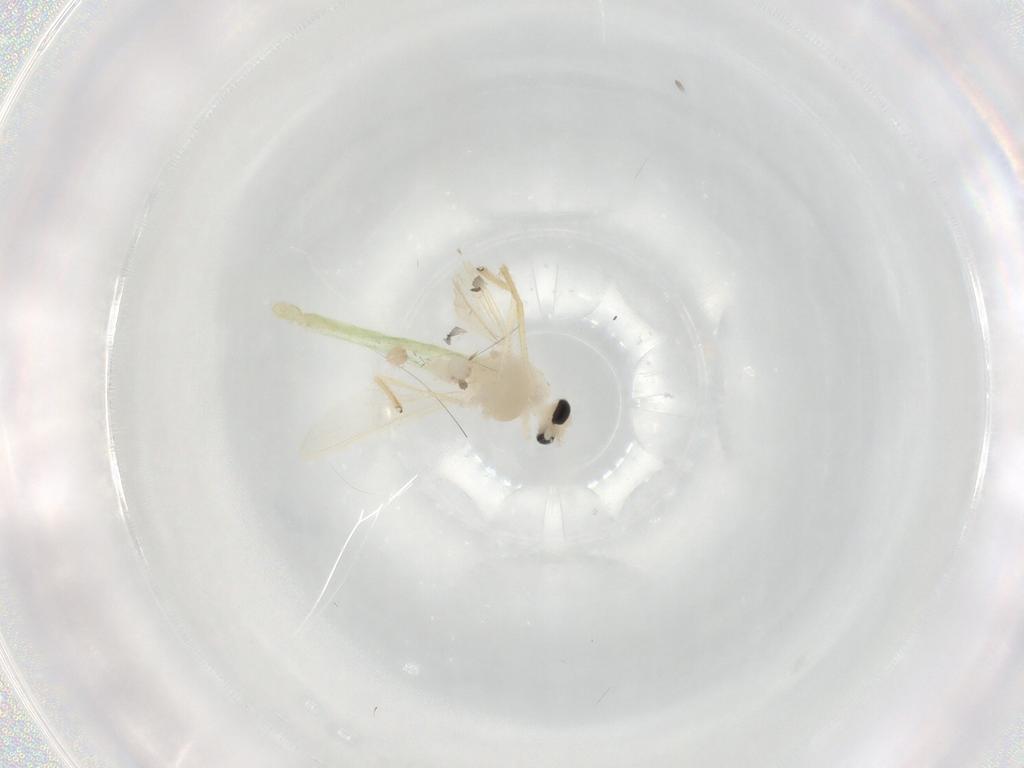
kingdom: Animalia
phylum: Arthropoda
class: Insecta
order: Diptera
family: Chironomidae
